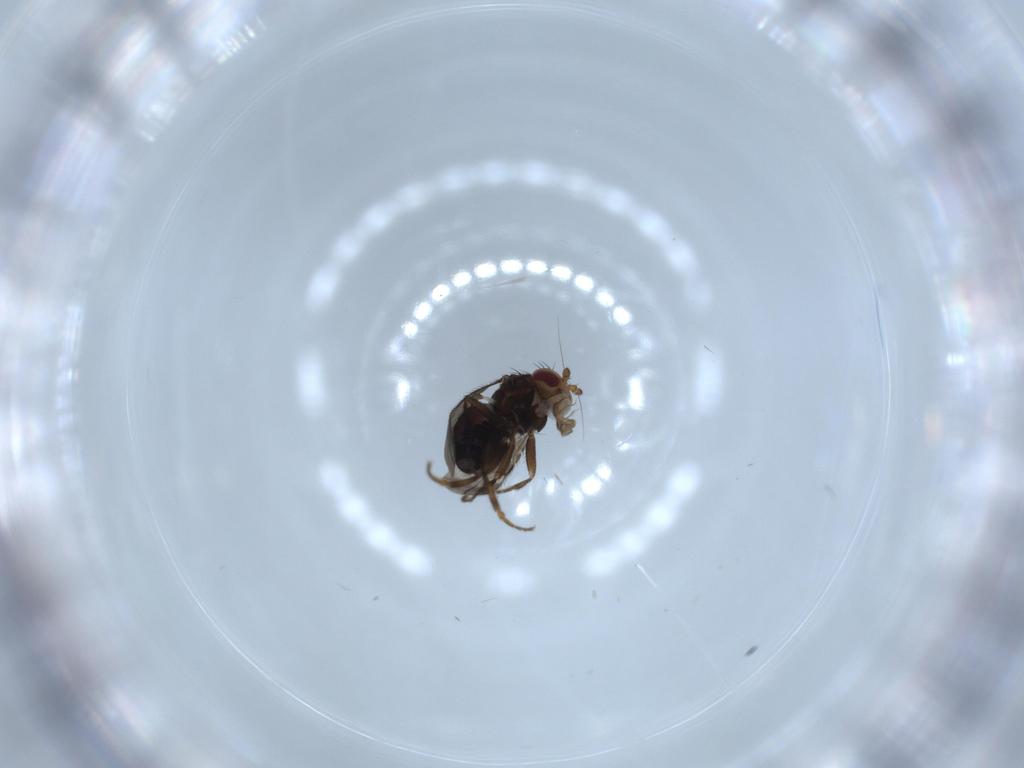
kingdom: Animalia
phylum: Arthropoda
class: Insecta
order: Diptera
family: Sphaeroceridae
